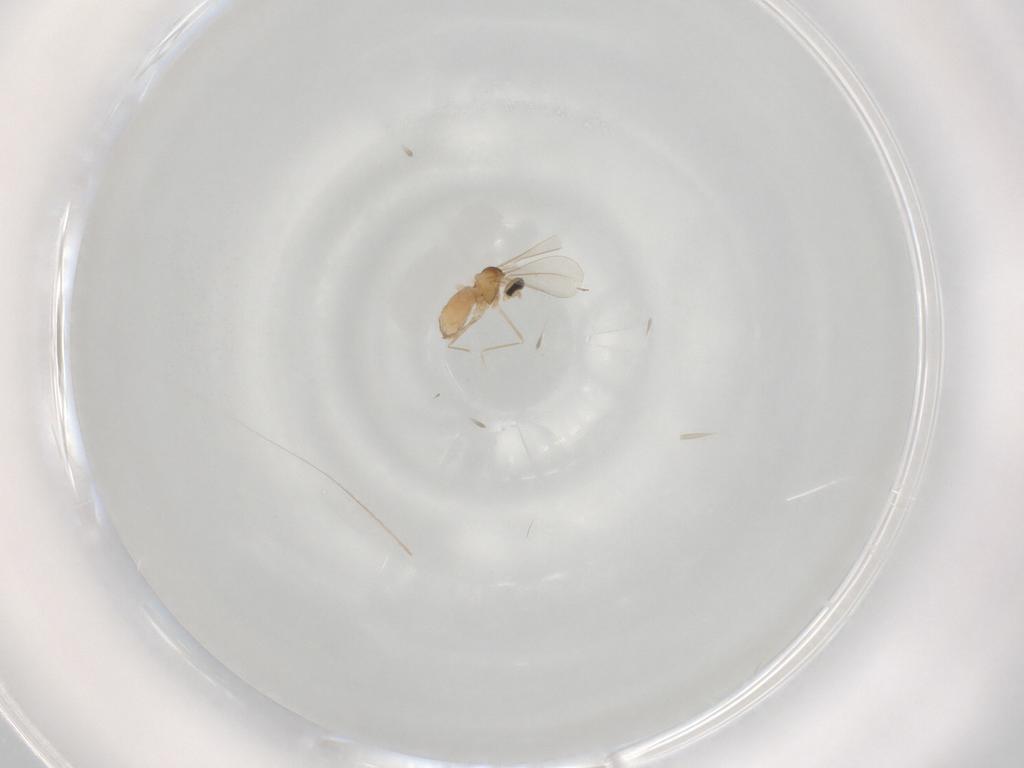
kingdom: Animalia
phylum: Arthropoda
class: Insecta
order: Diptera
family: Cecidomyiidae
